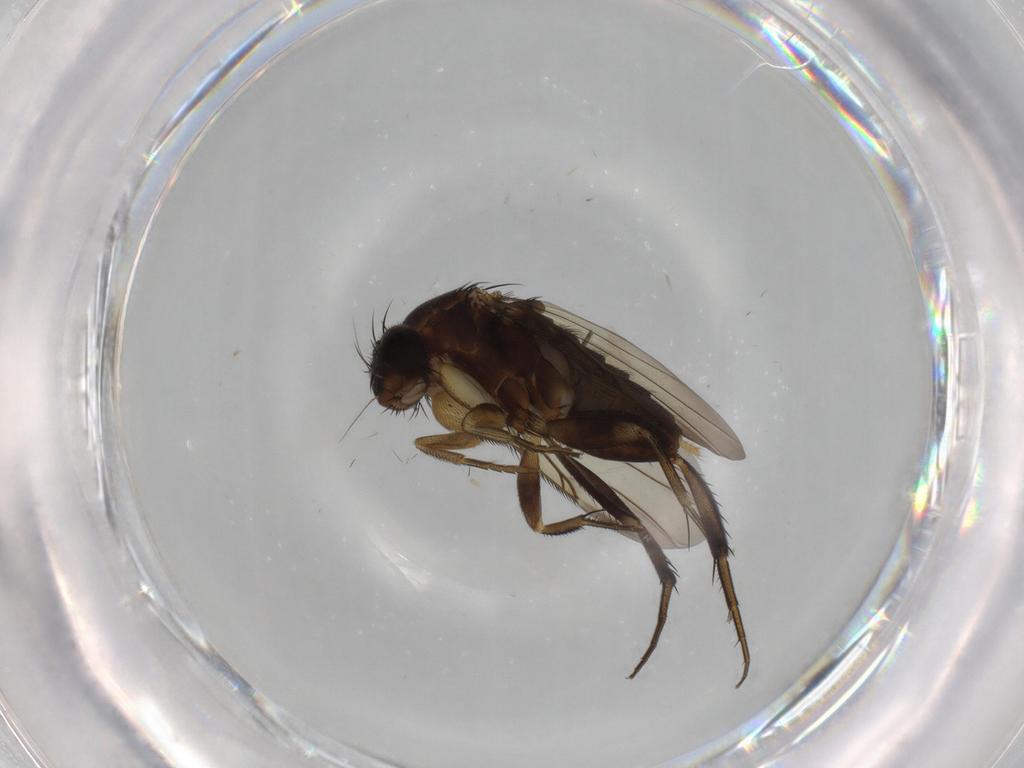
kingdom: Animalia
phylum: Arthropoda
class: Insecta
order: Diptera
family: Phoridae
